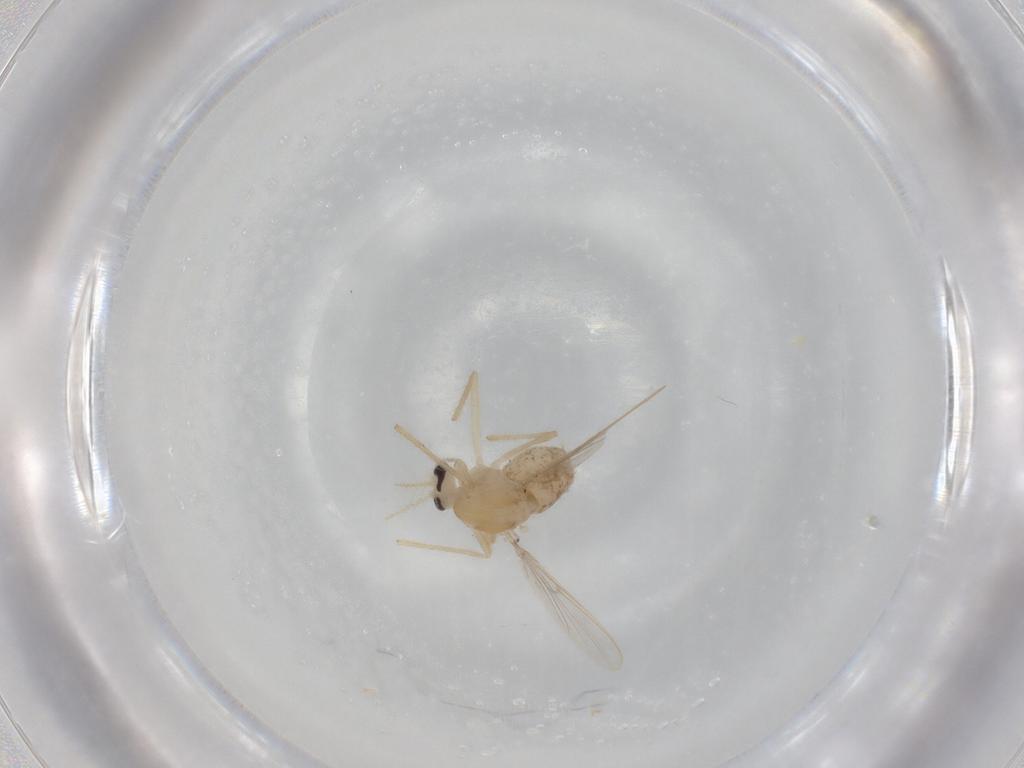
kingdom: Animalia
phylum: Arthropoda
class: Insecta
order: Diptera
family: Chironomidae
